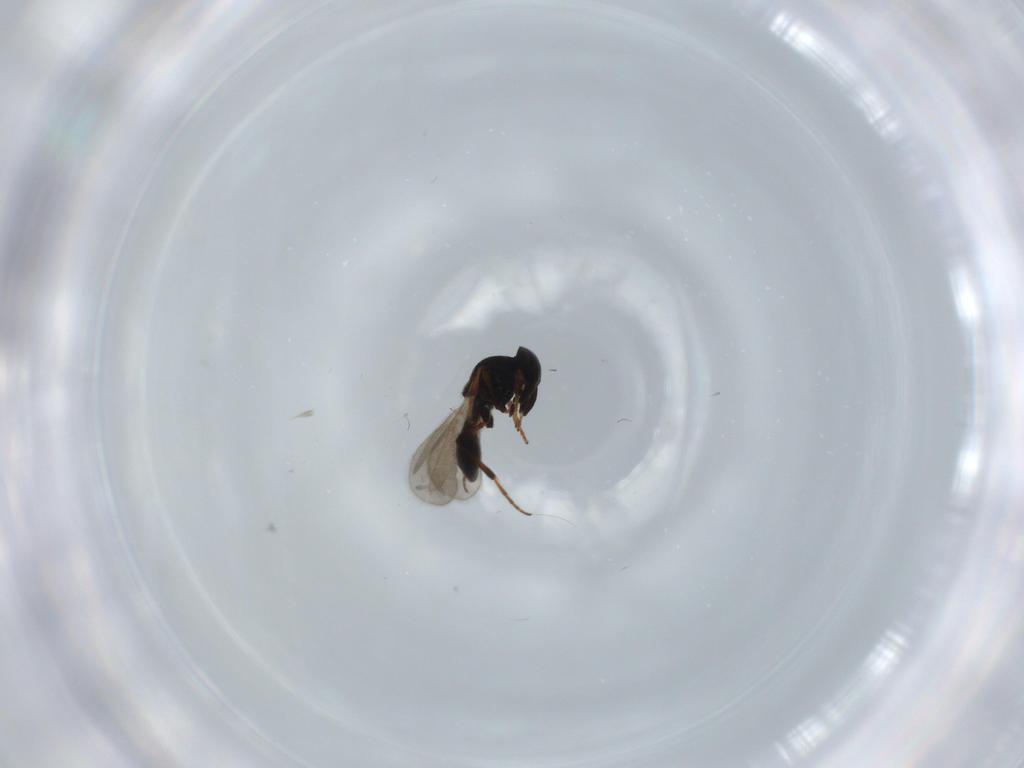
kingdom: Animalia
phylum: Arthropoda
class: Insecta
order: Hymenoptera
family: Platygastridae
